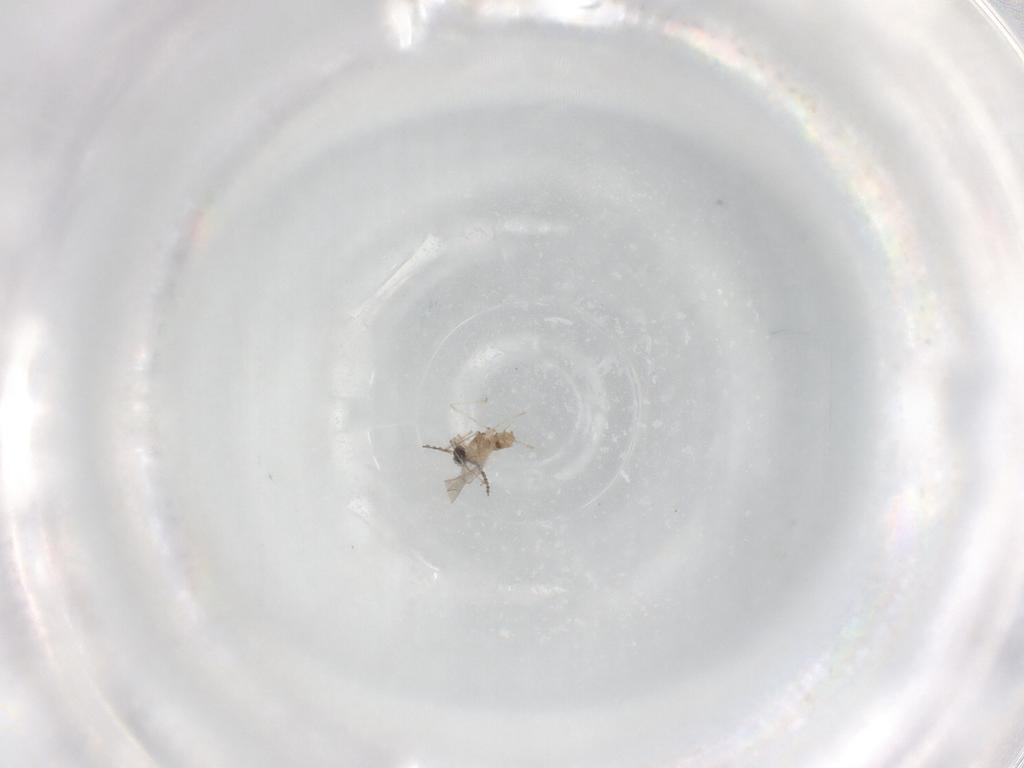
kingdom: Animalia
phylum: Arthropoda
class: Insecta
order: Diptera
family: Cecidomyiidae
